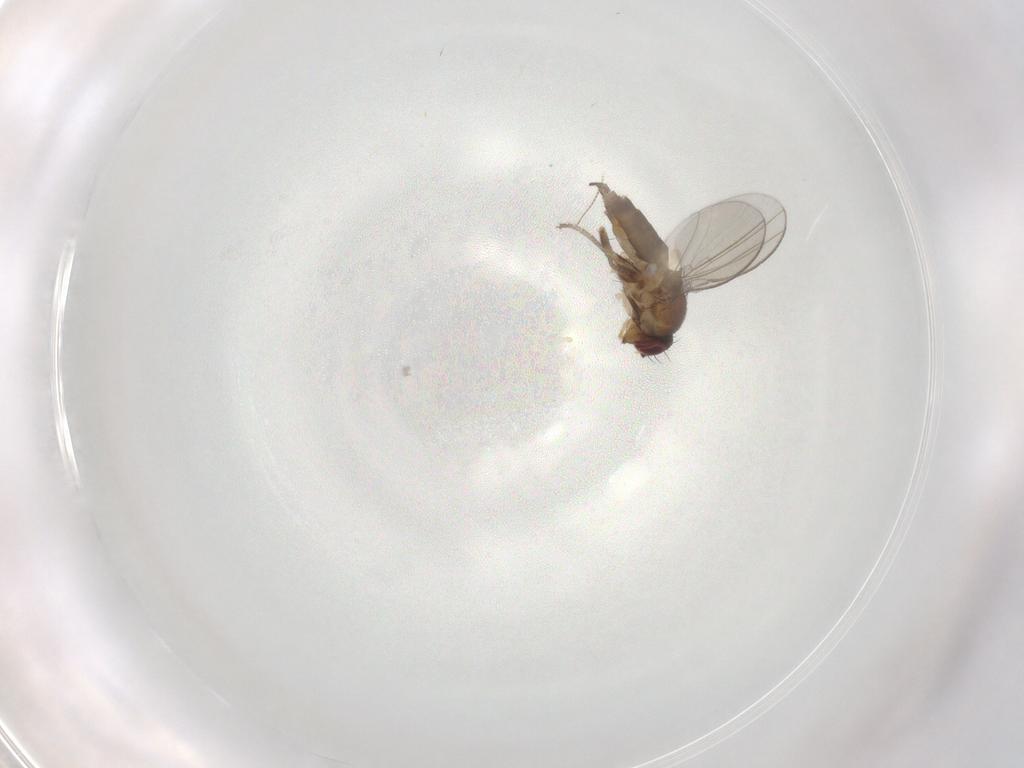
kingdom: Animalia
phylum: Arthropoda
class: Insecta
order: Diptera
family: Milichiidae
